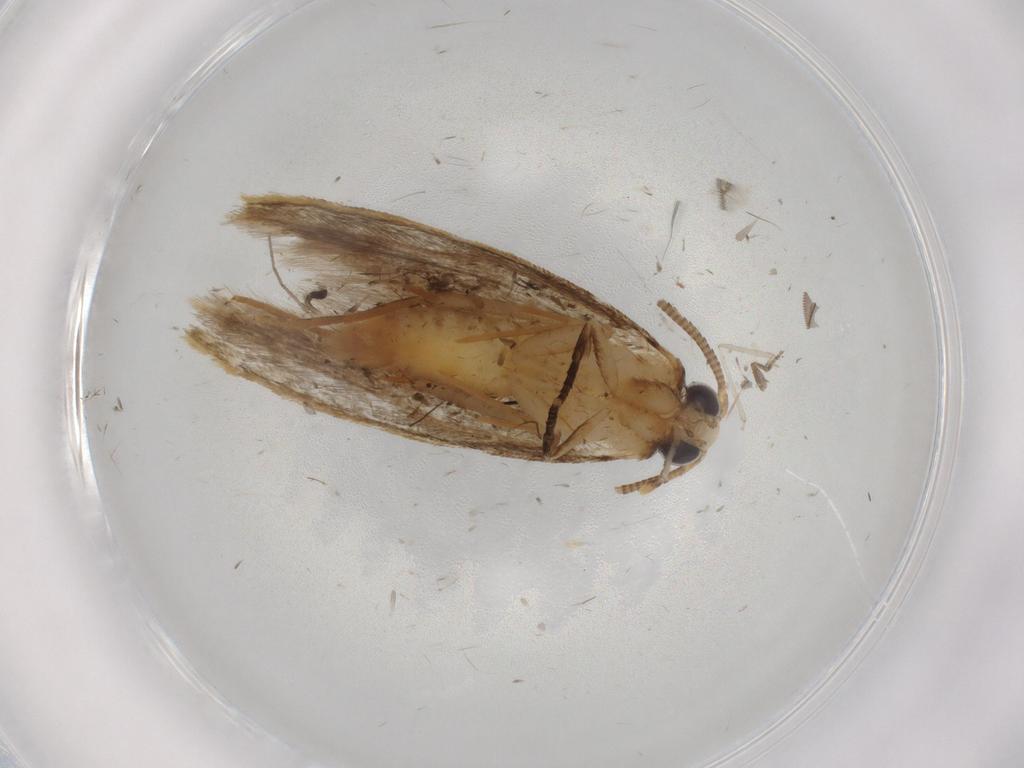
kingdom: Animalia
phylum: Arthropoda
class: Insecta
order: Lepidoptera
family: Tineidae
